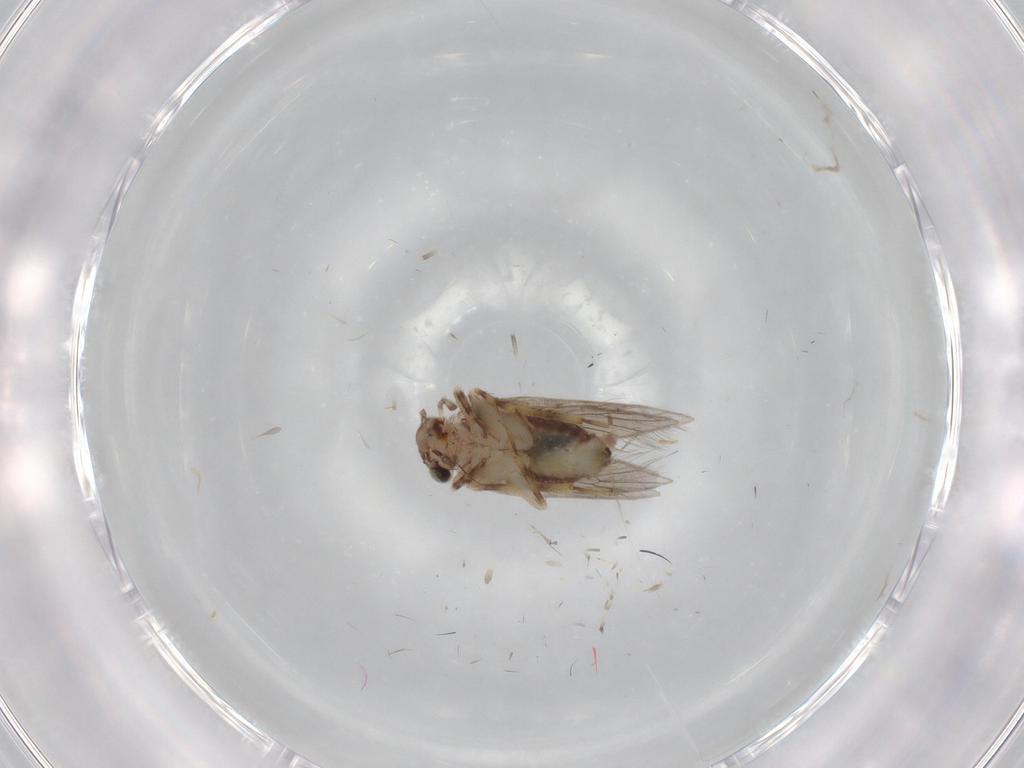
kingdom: Animalia
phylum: Arthropoda
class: Insecta
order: Psocodea
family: Lepidopsocidae
